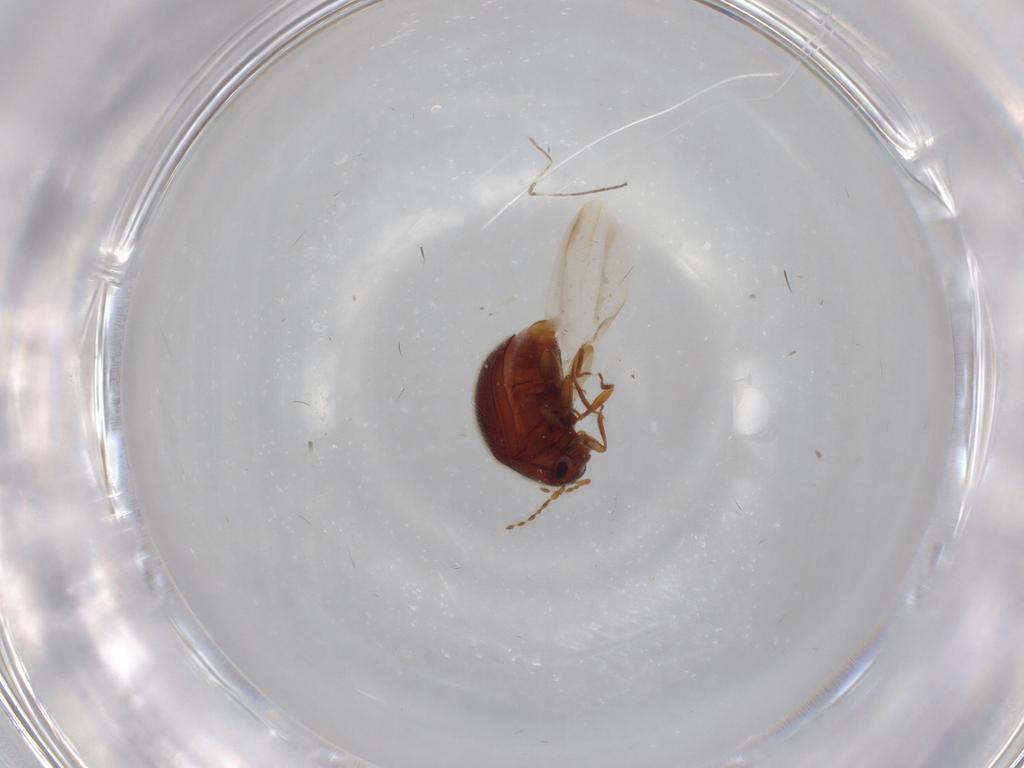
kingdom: Animalia
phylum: Arthropoda
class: Insecta
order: Coleoptera
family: Anamorphidae
